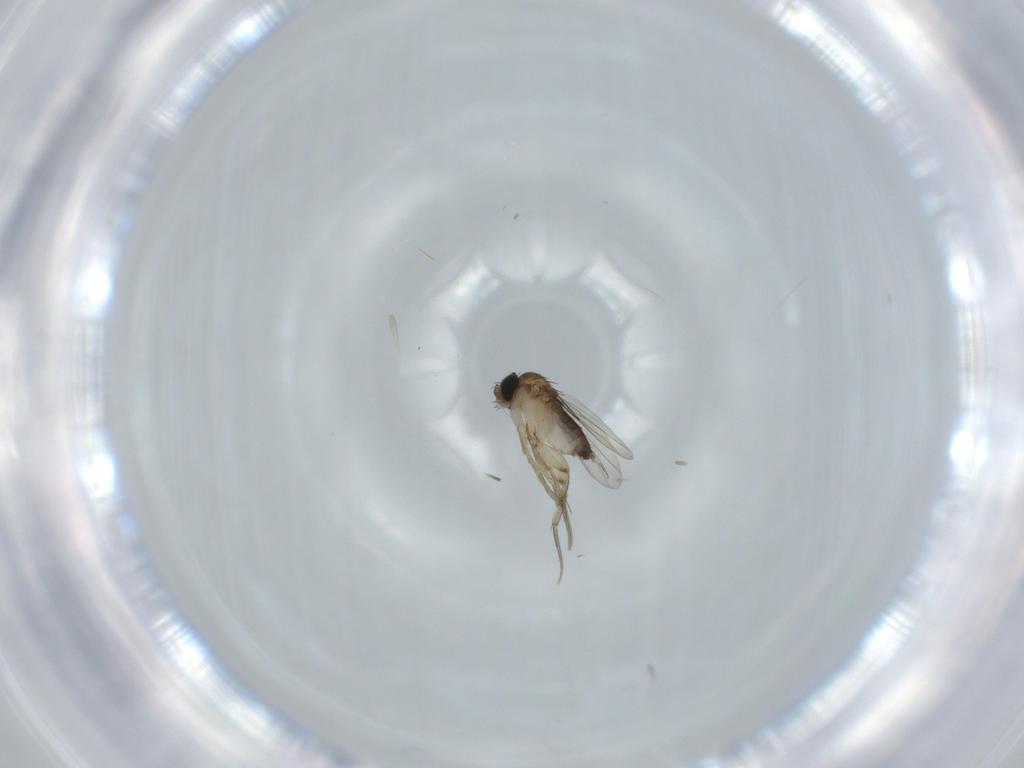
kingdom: Animalia
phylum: Arthropoda
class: Insecta
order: Diptera
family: Phoridae
